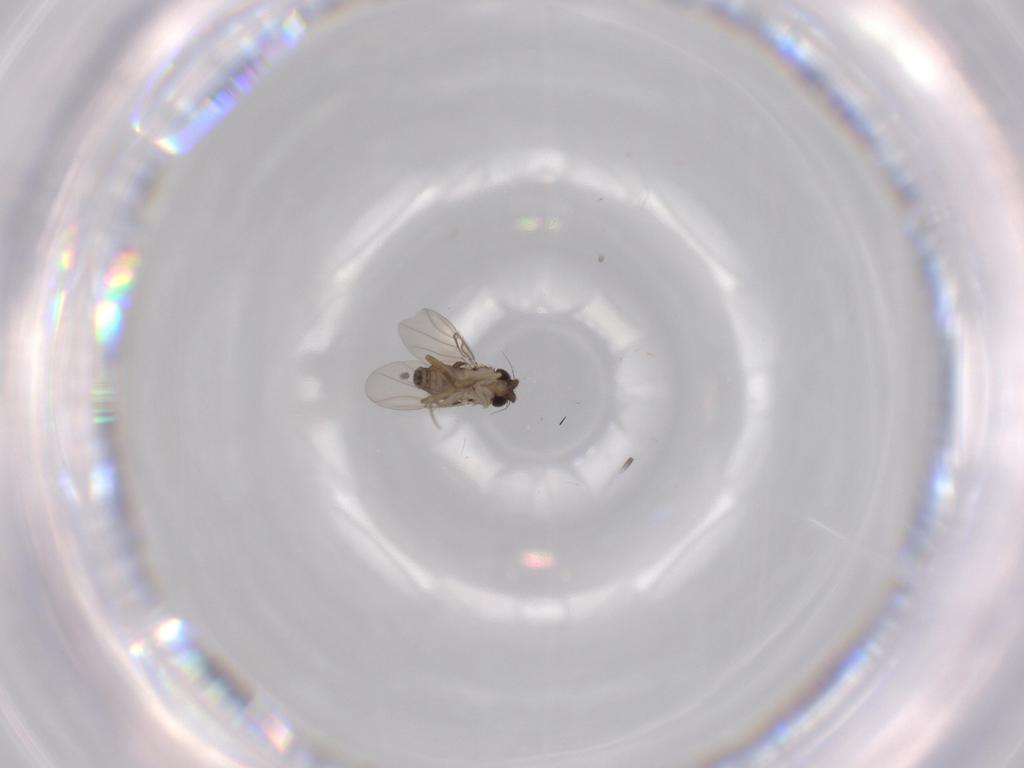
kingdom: Animalia
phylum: Arthropoda
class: Insecta
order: Diptera
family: Phoridae
